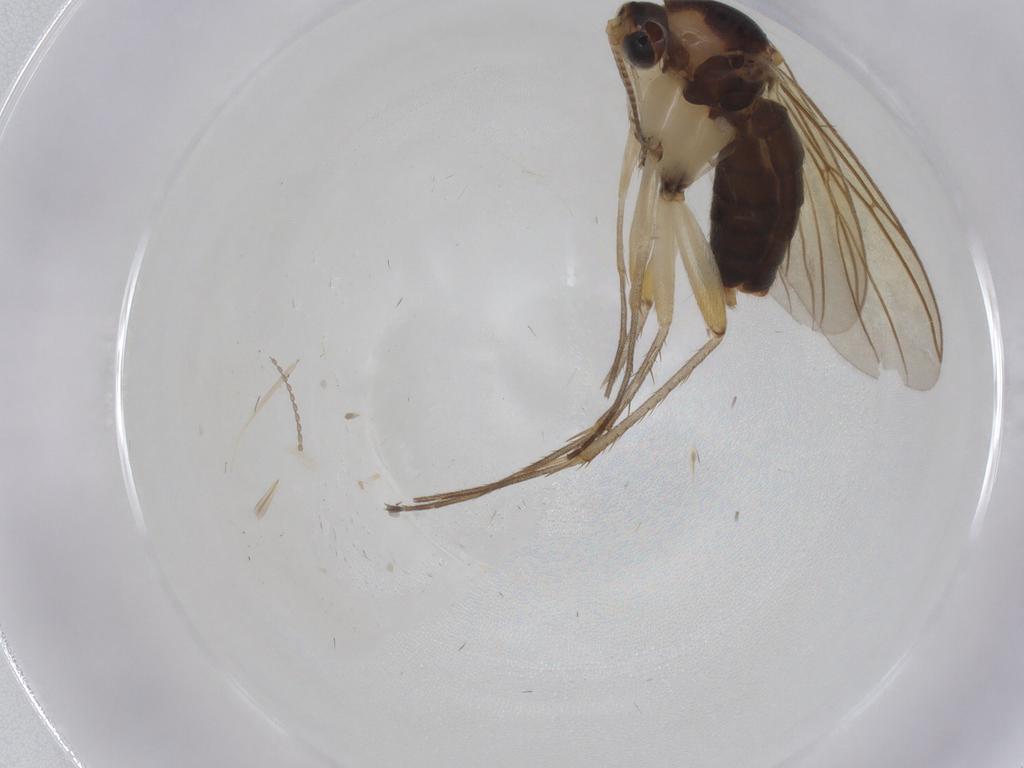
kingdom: Animalia
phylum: Arthropoda
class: Insecta
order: Diptera
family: Mycetophilidae
